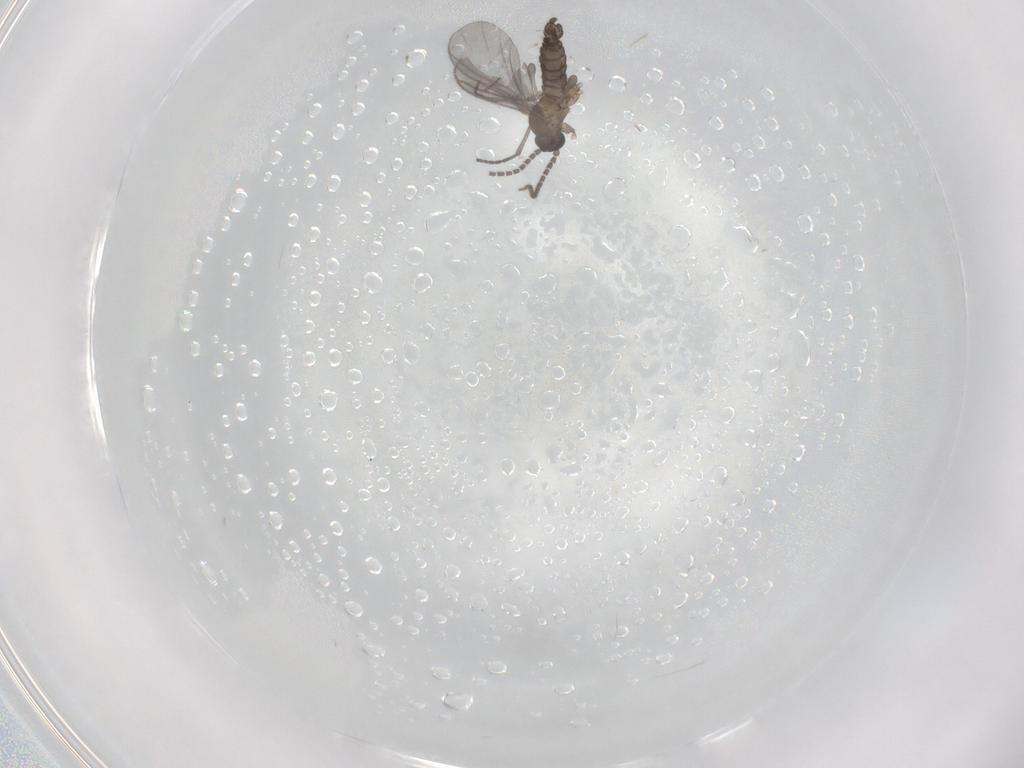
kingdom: Animalia
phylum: Arthropoda
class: Insecta
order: Diptera
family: Sciaridae
